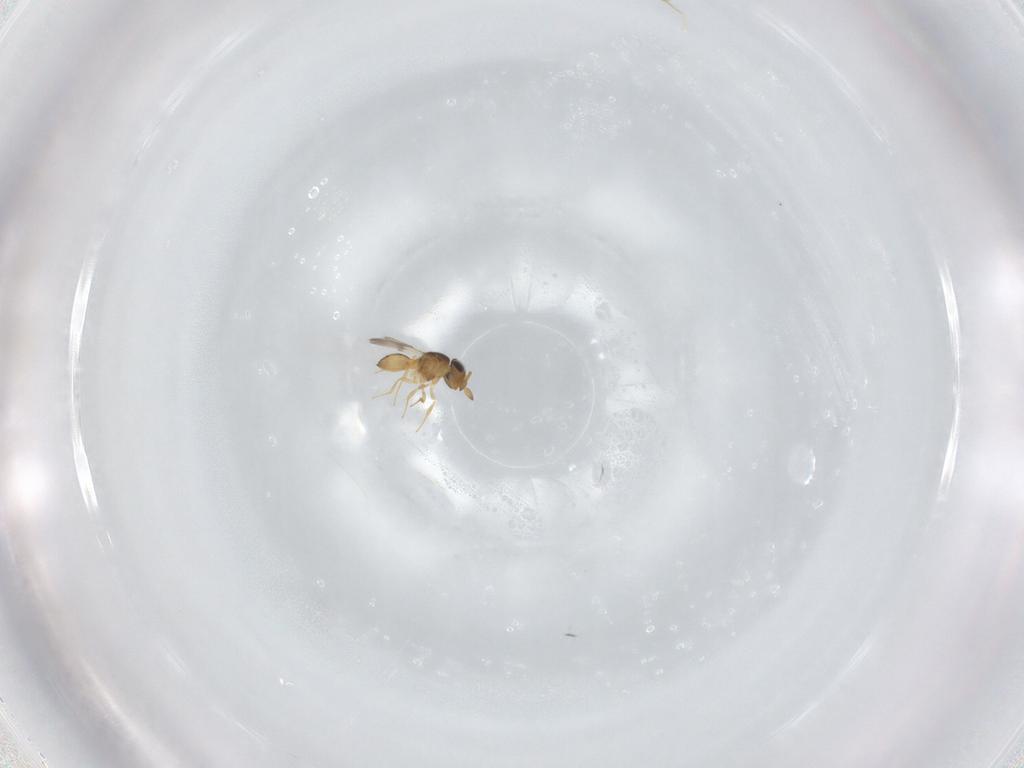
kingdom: Animalia
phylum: Arthropoda
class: Insecta
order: Hymenoptera
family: Scelionidae
